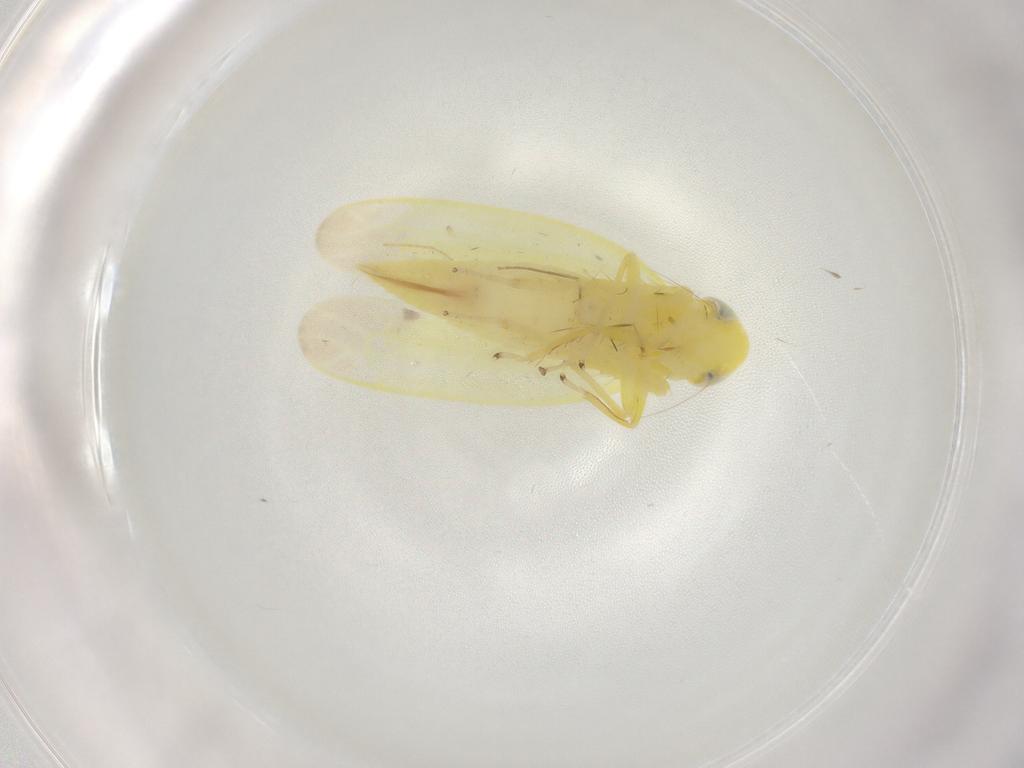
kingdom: Animalia
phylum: Arthropoda
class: Insecta
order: Hemiptera
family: Cicadellidae
